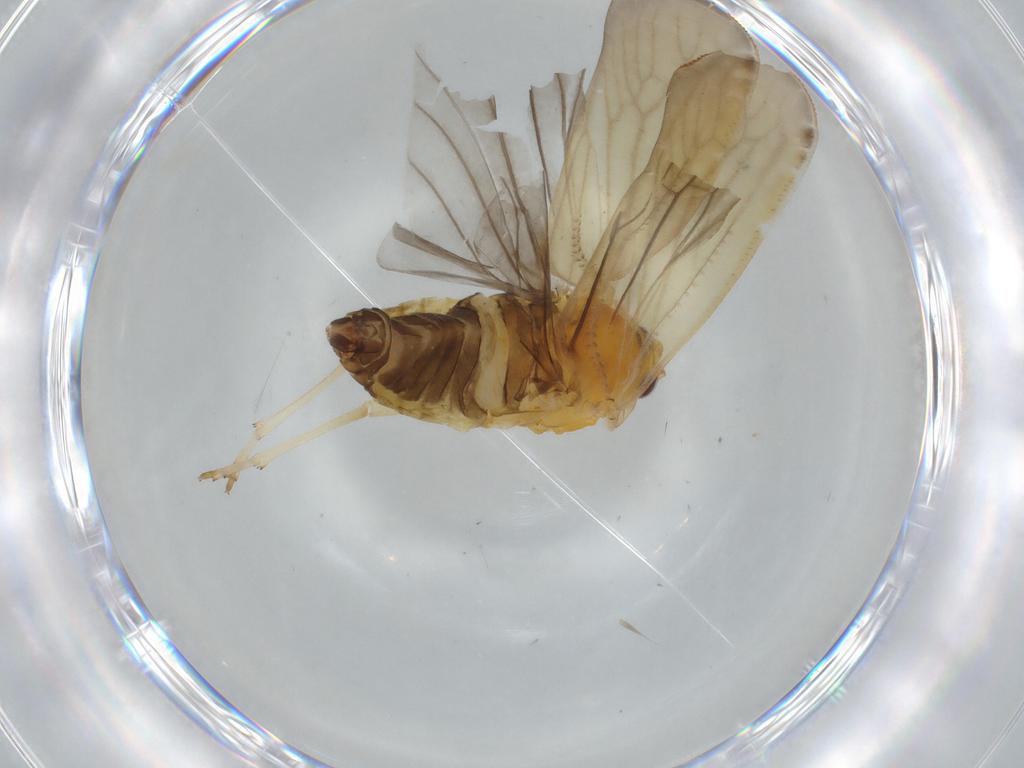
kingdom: Animalia
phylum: Arthropoda
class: Insecta
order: Hemiptera
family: Derbidae
